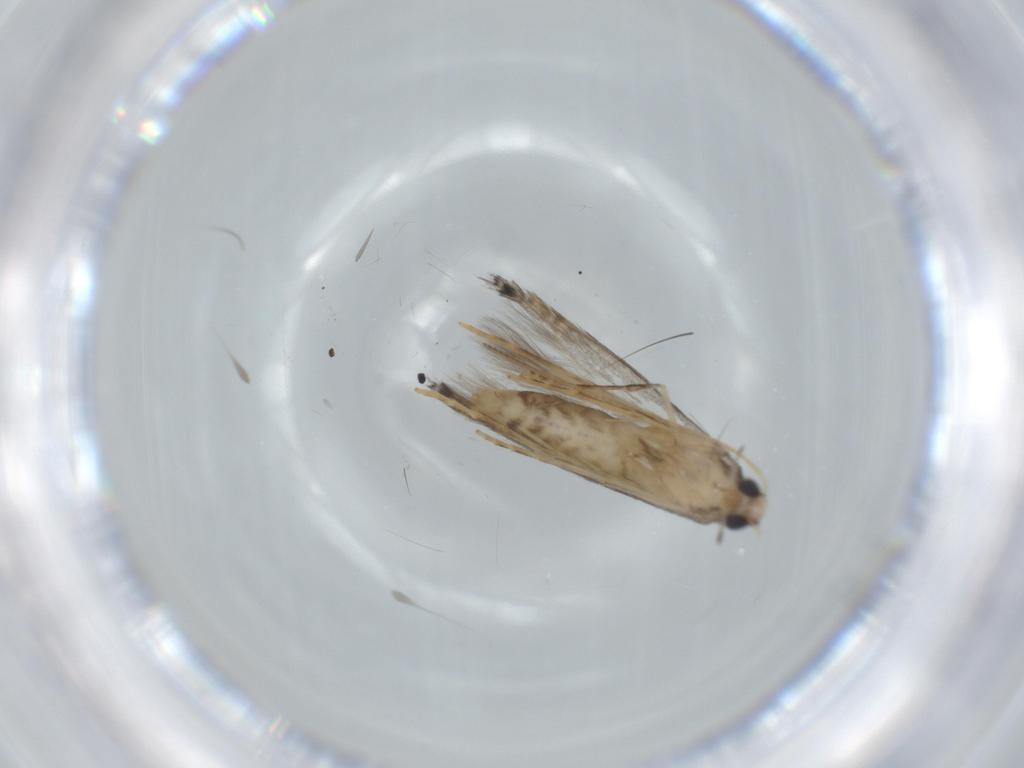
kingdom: Animalia
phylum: Arthropoda
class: Insecta
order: Lepidoptera
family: Gracillariidae
